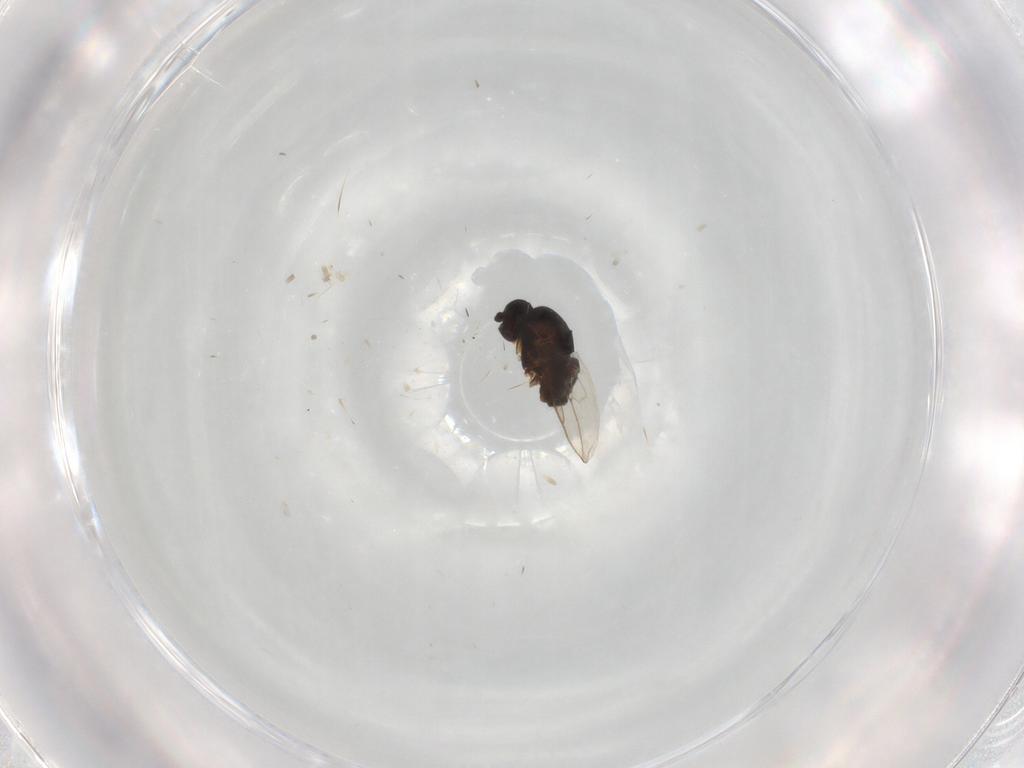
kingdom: Animalia
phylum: Arthropoda
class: Insecta
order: Diptera
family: Sphaeroceridae
